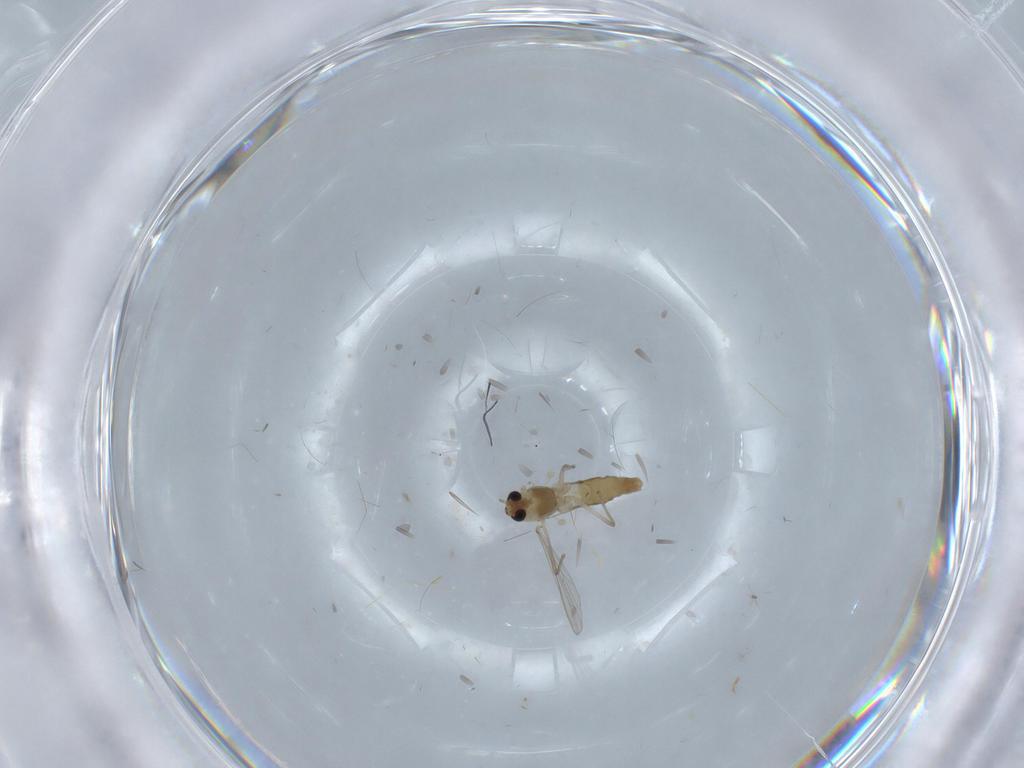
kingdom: Animalia
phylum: Arthropoda
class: Insecta
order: Diptera
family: Chironomidae
